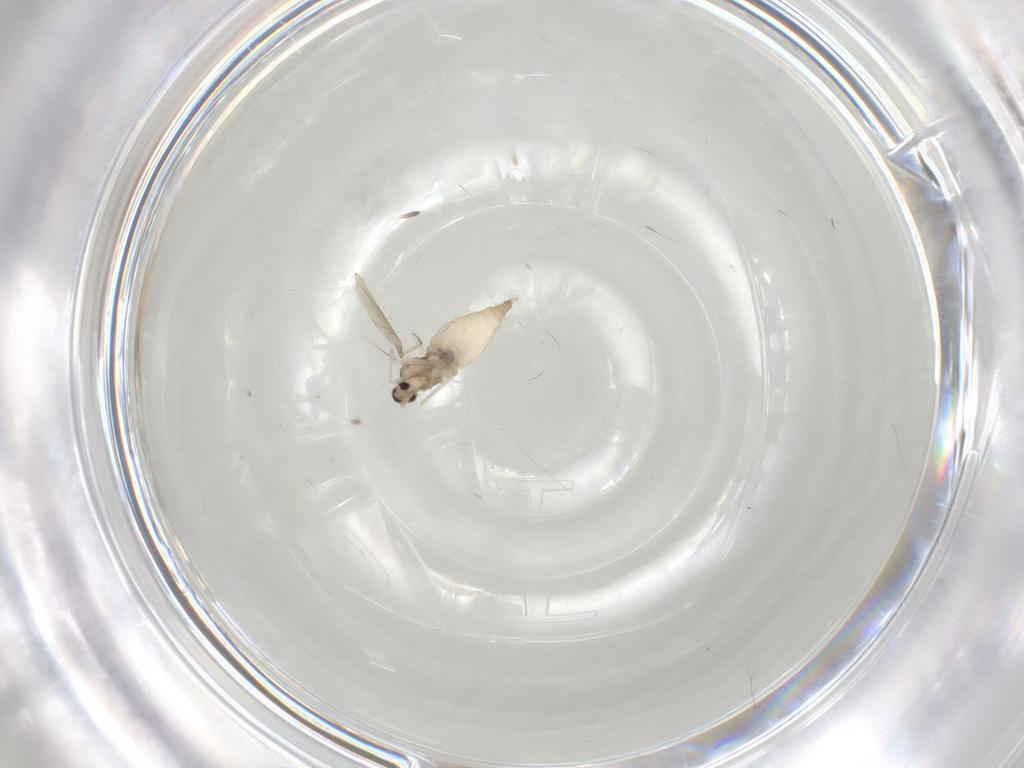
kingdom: Animalia
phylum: Arthropoda
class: Insecta
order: Diptera
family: Cecidomyiidae
